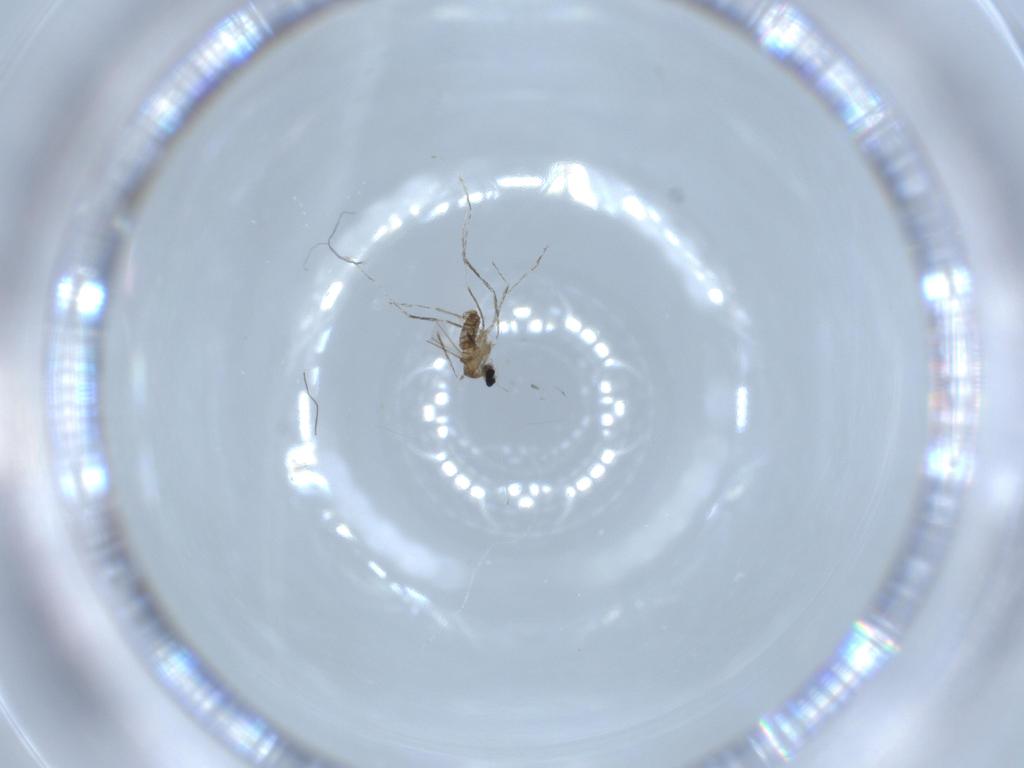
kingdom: Animalia
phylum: Arthropoda
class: Insecta
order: Diptera
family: Cecidomyiidae
